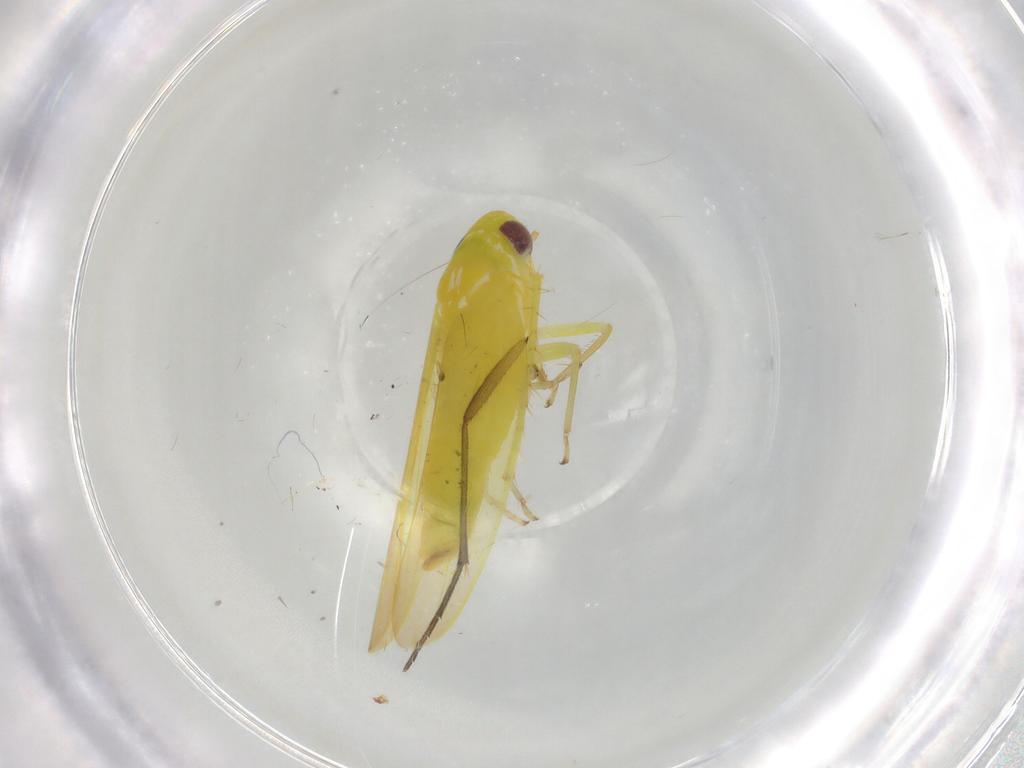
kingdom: Animalia
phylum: Arthropoda
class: Insecta
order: Hemiptera
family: Cicadellidae
